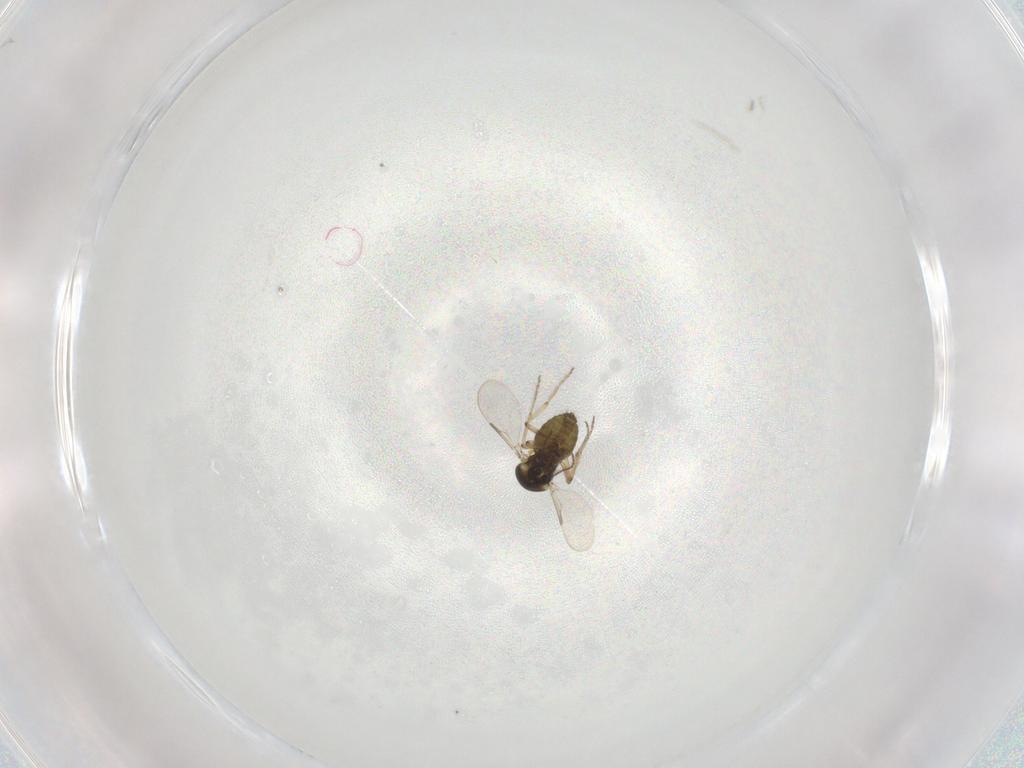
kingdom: Animalia
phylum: Arthropoda
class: Insecta
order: Diptera
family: Ceratopogonidae
